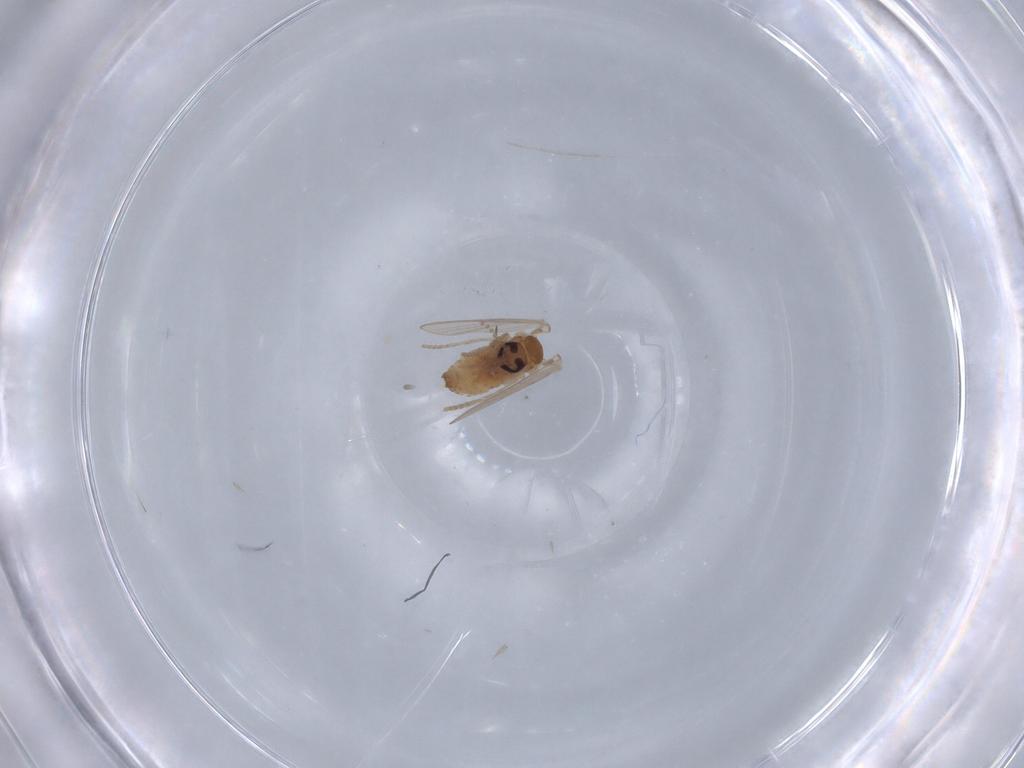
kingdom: Animalia
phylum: Arthropoda
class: Insecta
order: Diptera
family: Psychodidae
